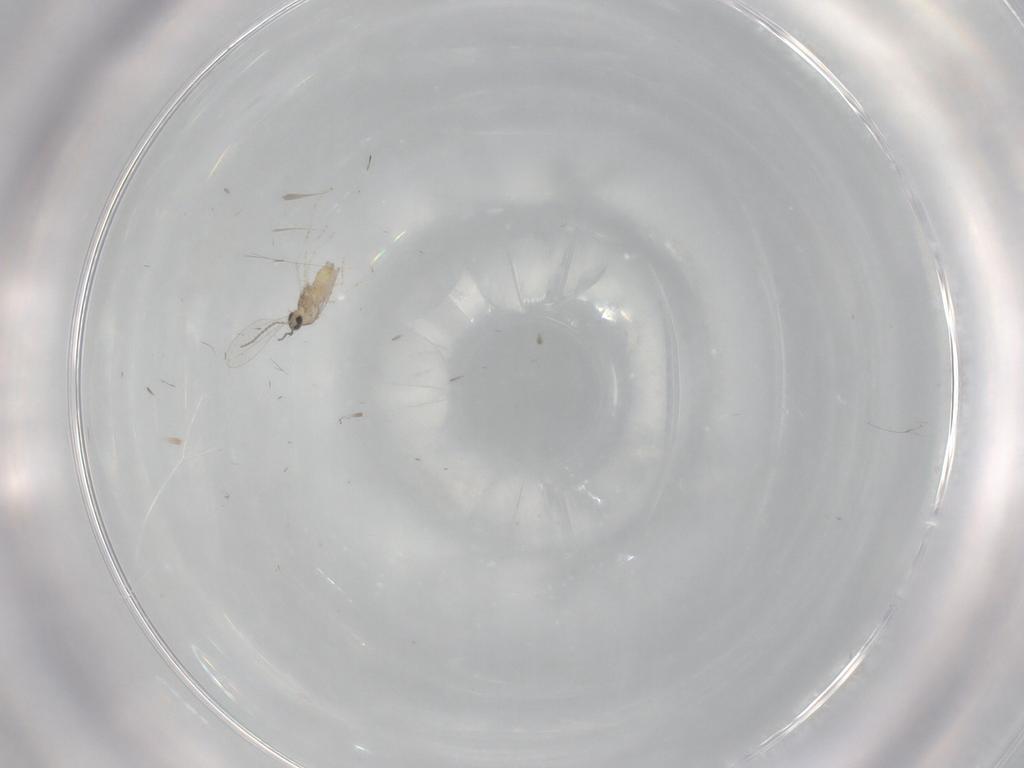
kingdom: Animalia
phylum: Arthropoda
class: Insecta
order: Diptera
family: Cecidomyiidae
